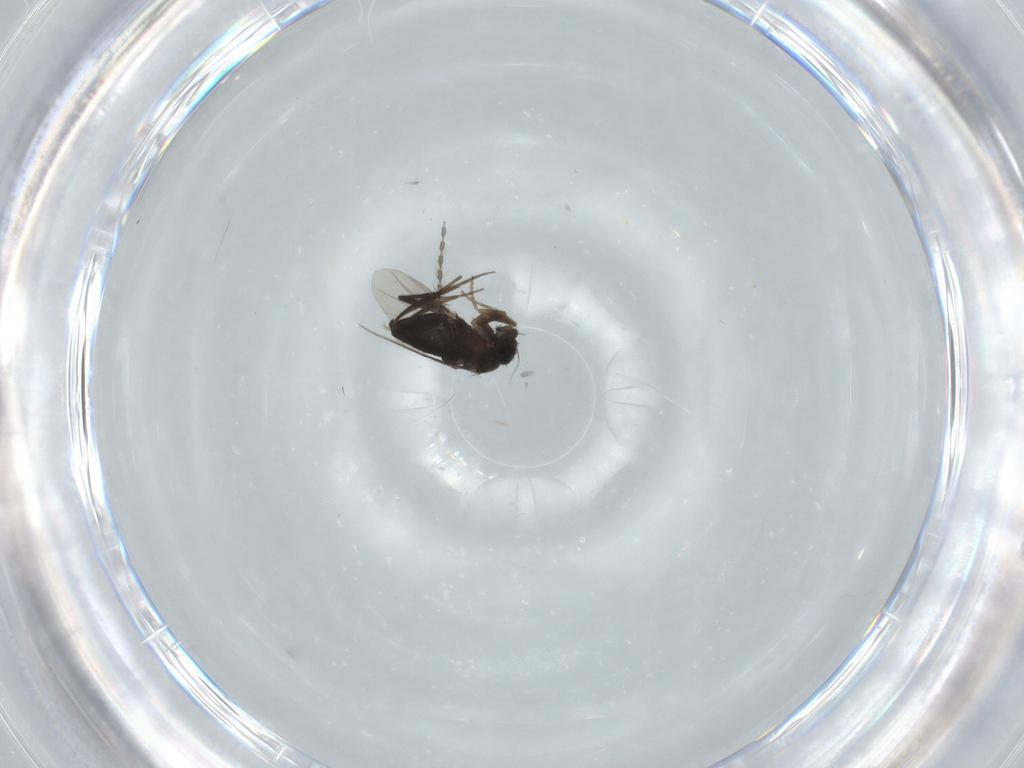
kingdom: Animalia
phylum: Arthropoda
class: Insecta
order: Diptera
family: Phoridae
